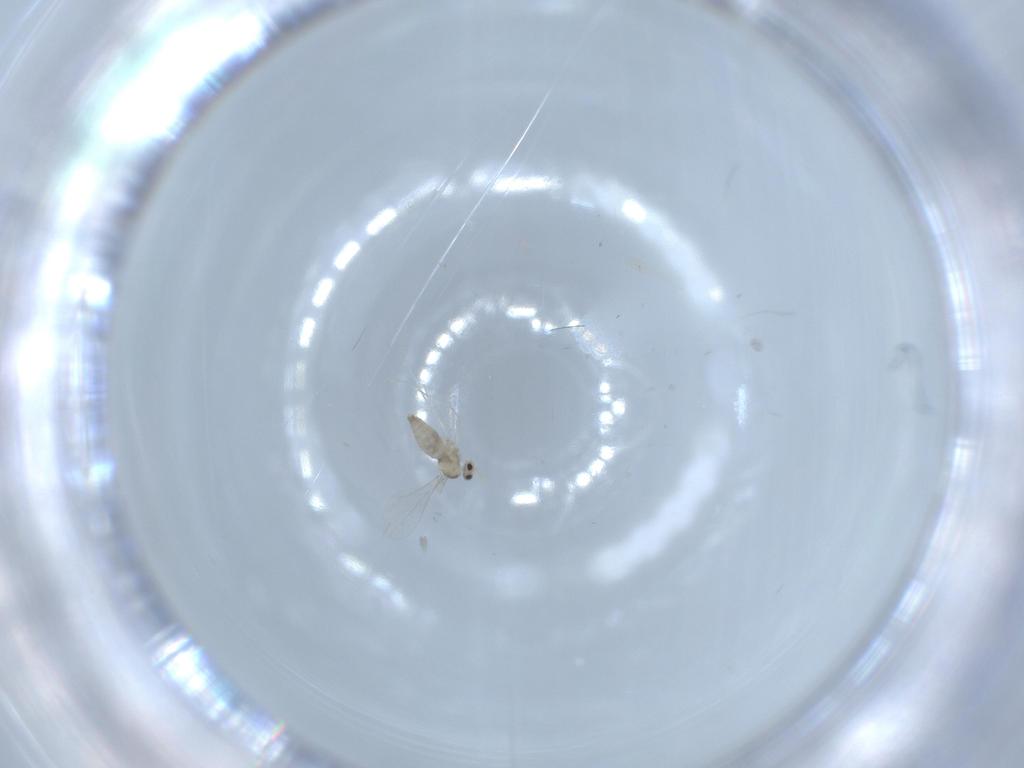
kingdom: Animalia
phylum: Arthropoda
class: Insecta
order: Diptera
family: Cecidomyiidae
